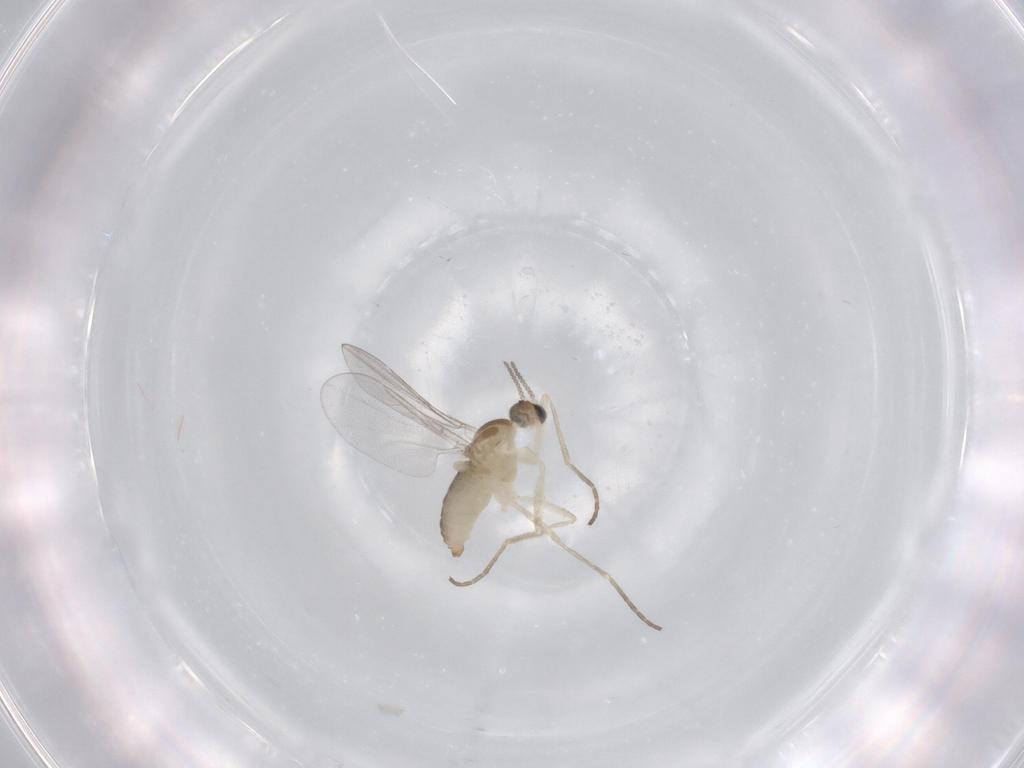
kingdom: Animalia
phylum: Arthropoda
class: Insecta
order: Diptera
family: Cecidomyiidae
